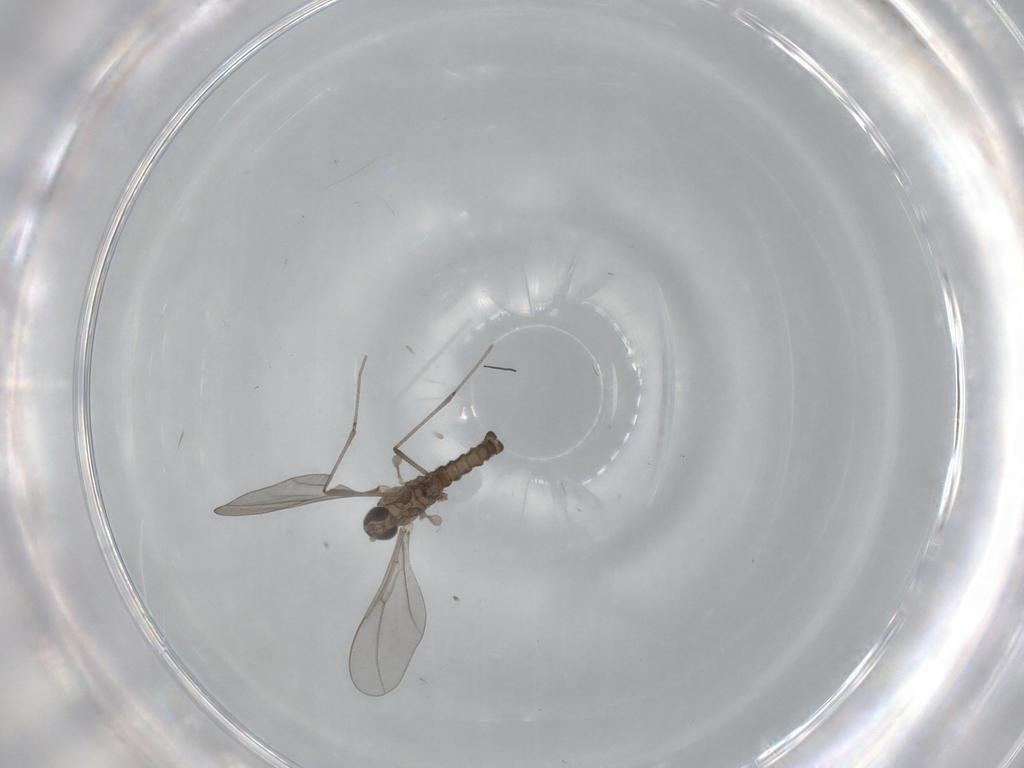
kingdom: Animalia
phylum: Arthropoda
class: Insecta
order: Diptera
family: Cecidomyiidae
